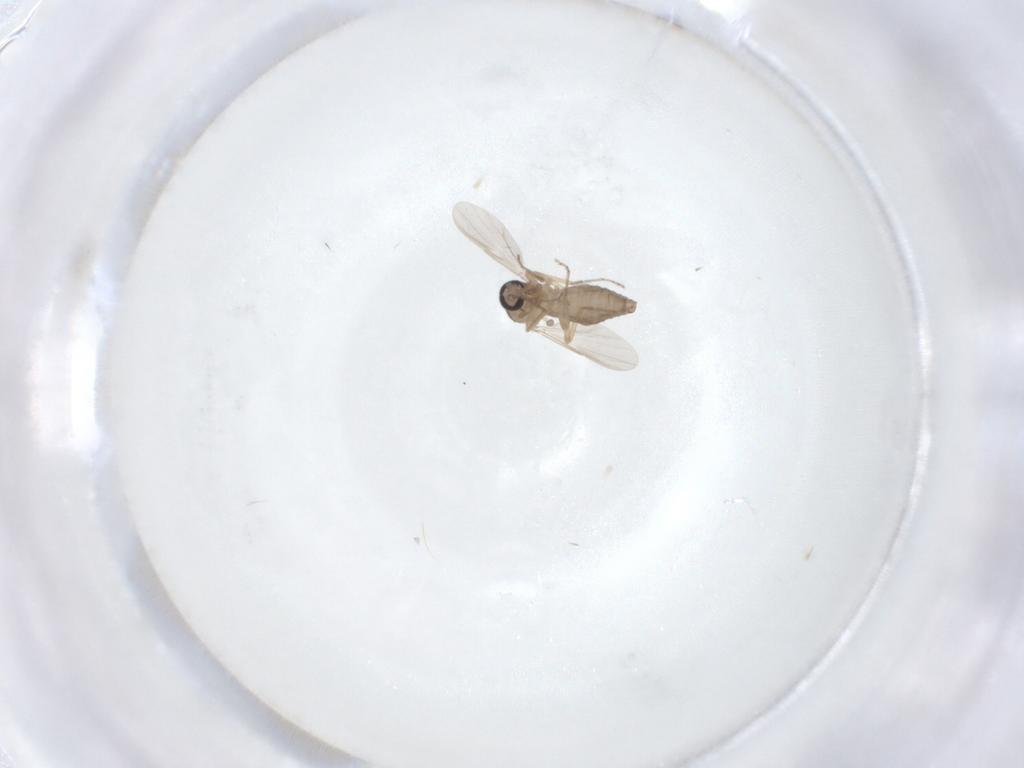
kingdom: Animalia
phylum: Arthropoda
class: Insecta
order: Diptera
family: Ceratopogonidae
